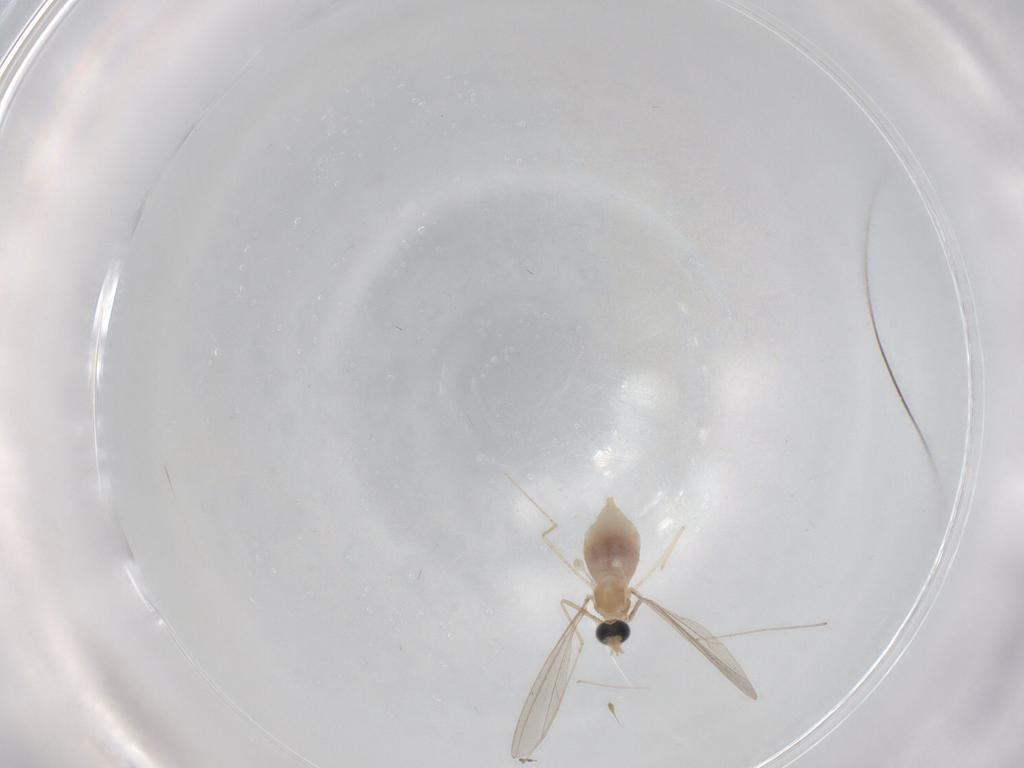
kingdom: Animalia
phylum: Arthropoda
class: Insecta
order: Diptera
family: Cecidomyiidae
